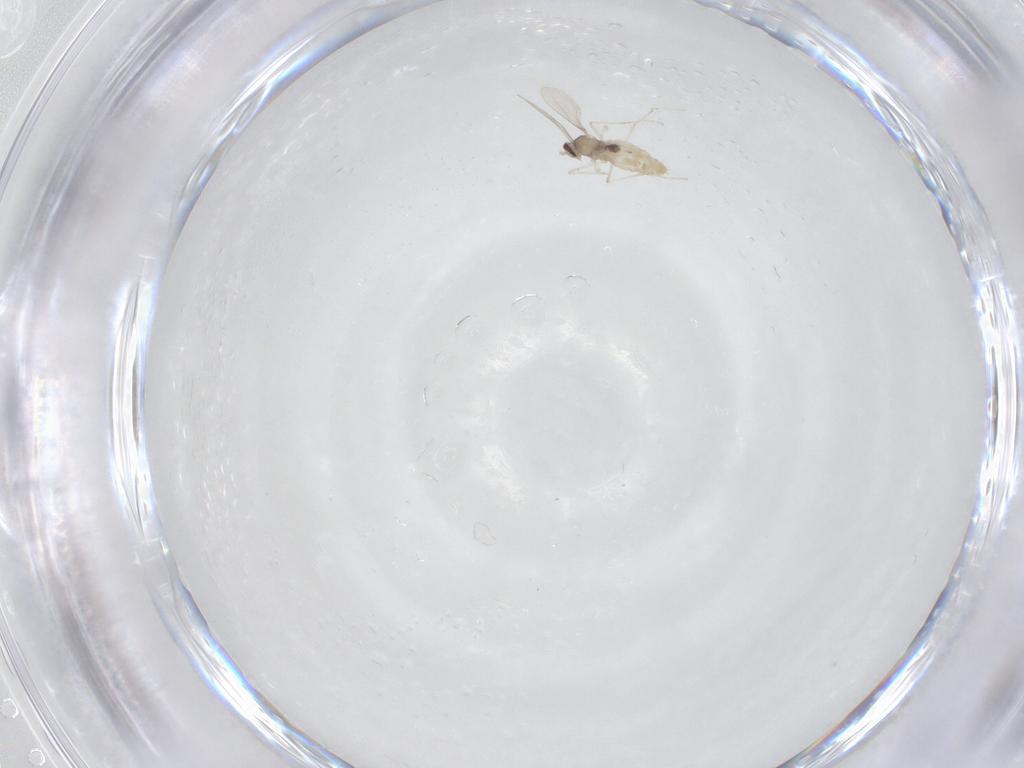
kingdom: Animalia
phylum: Arthropoda
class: Insecta
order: Diptera
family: Cecidomyiidae
